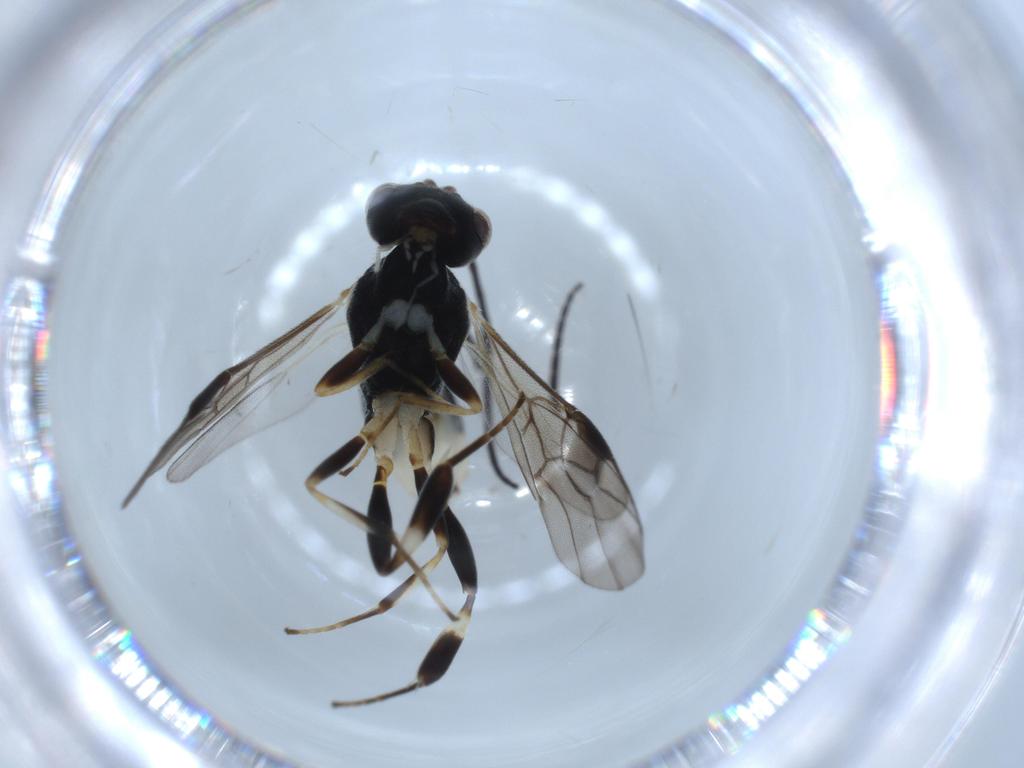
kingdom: Animalia
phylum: Arthropoda
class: Insecta
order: Hymenoptera
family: Braconidae
